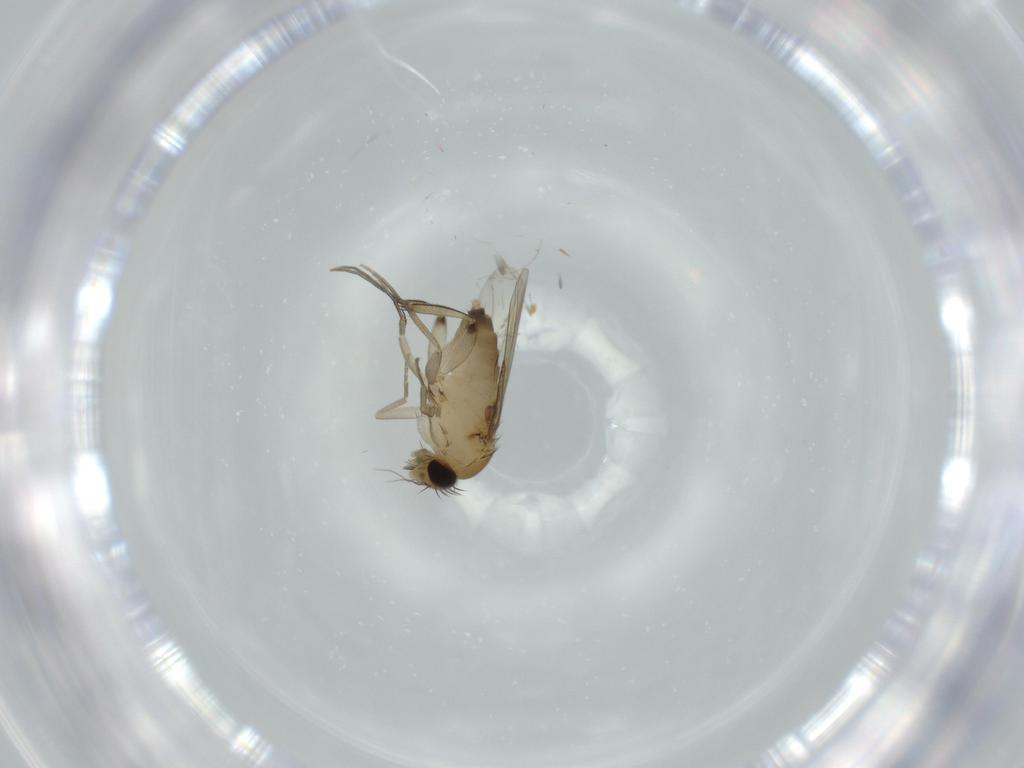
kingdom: Animalia
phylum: Arthropoda
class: Insecta
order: Diptera
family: Phoridae
